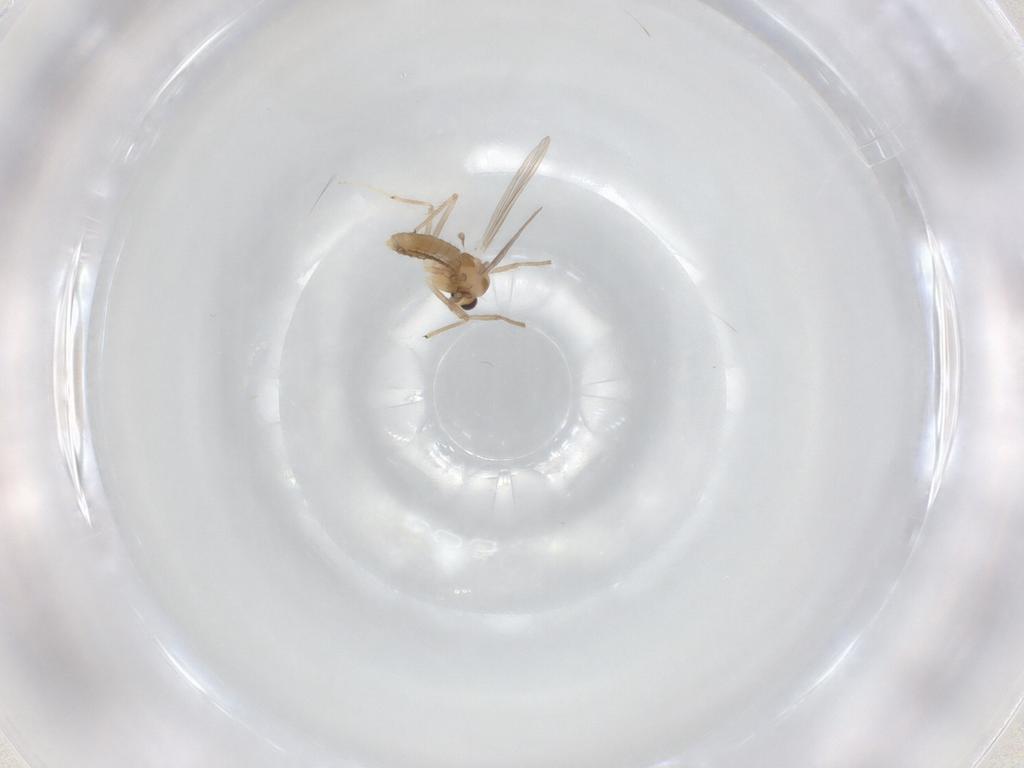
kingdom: Animalia
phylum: Arthropoda
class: Insecta
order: Diptera
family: Chironomidae
